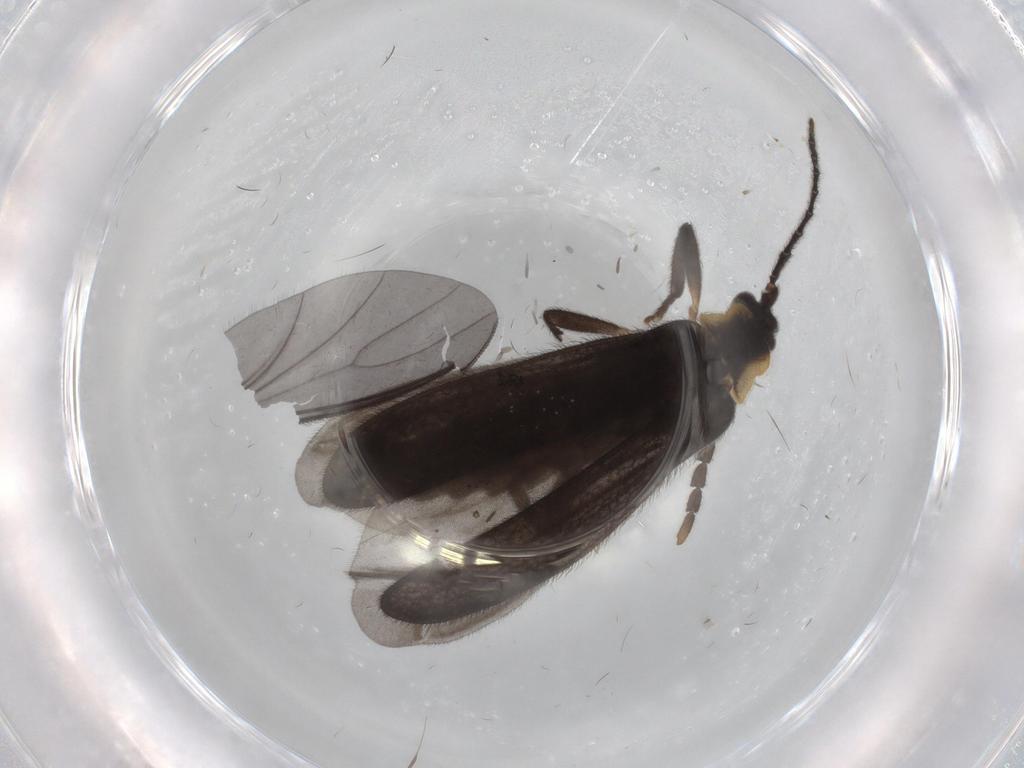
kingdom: Animalia
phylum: Arthropoda
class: Insecta
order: Coleoptera
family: Lycidae
